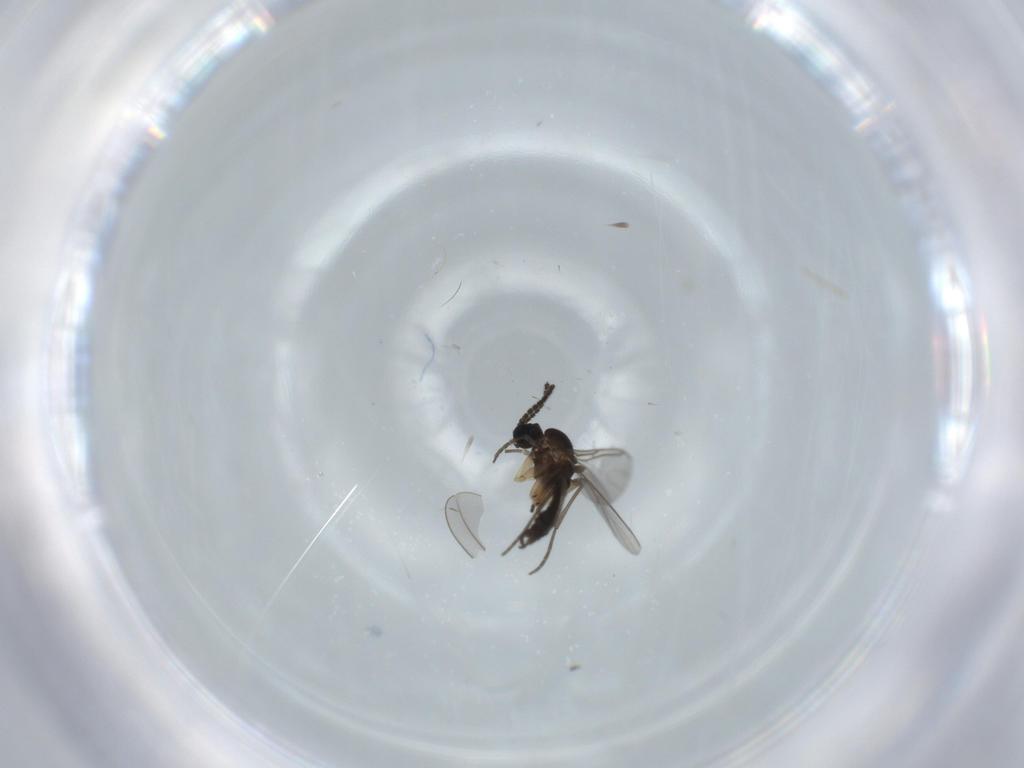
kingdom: Animalia
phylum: Arthropoda
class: Insecta
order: Diptera
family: Sciaridae
